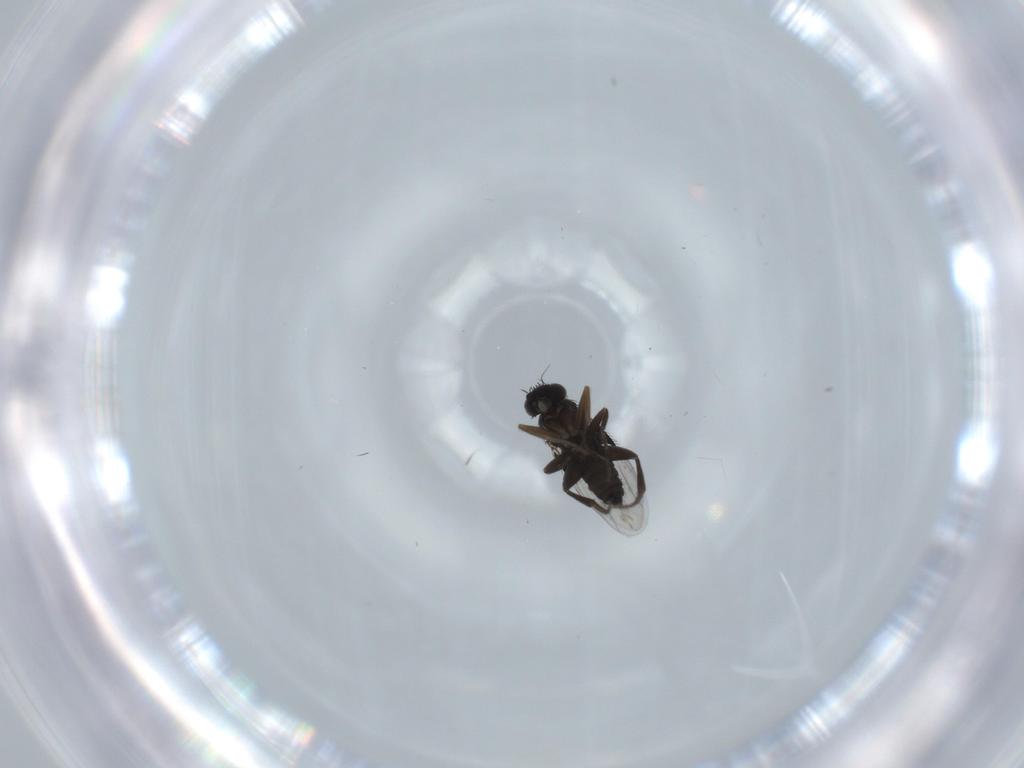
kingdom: Animalia
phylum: Arthropoda
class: Insecta
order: Diptera
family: Phoridae
